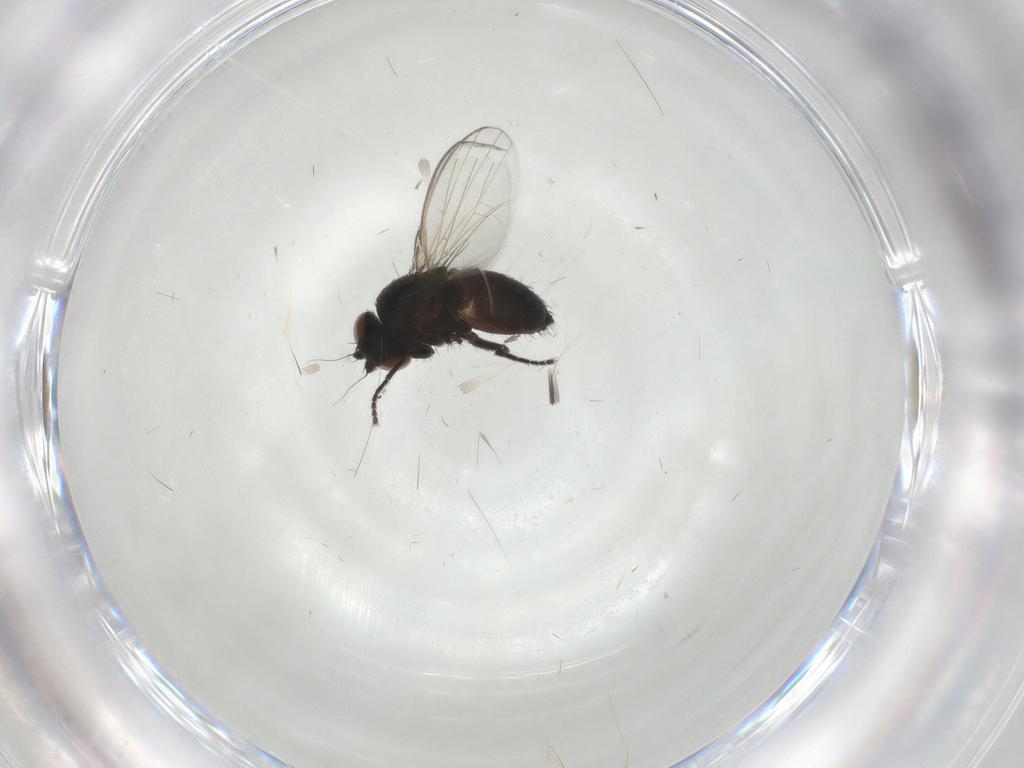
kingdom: Animalia
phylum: Arthropoda
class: Insecta
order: Diptera
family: Milichiidae
